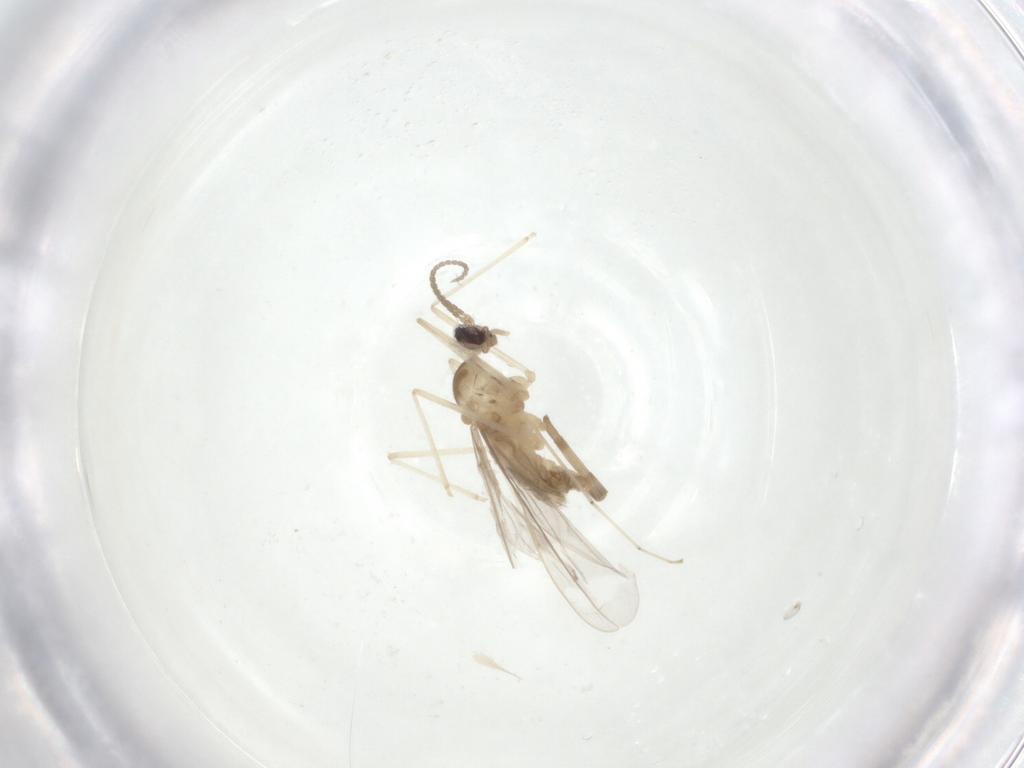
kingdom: Animalia
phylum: Arthropoda
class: Insecta
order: Diptera
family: Cecidomyiidae
